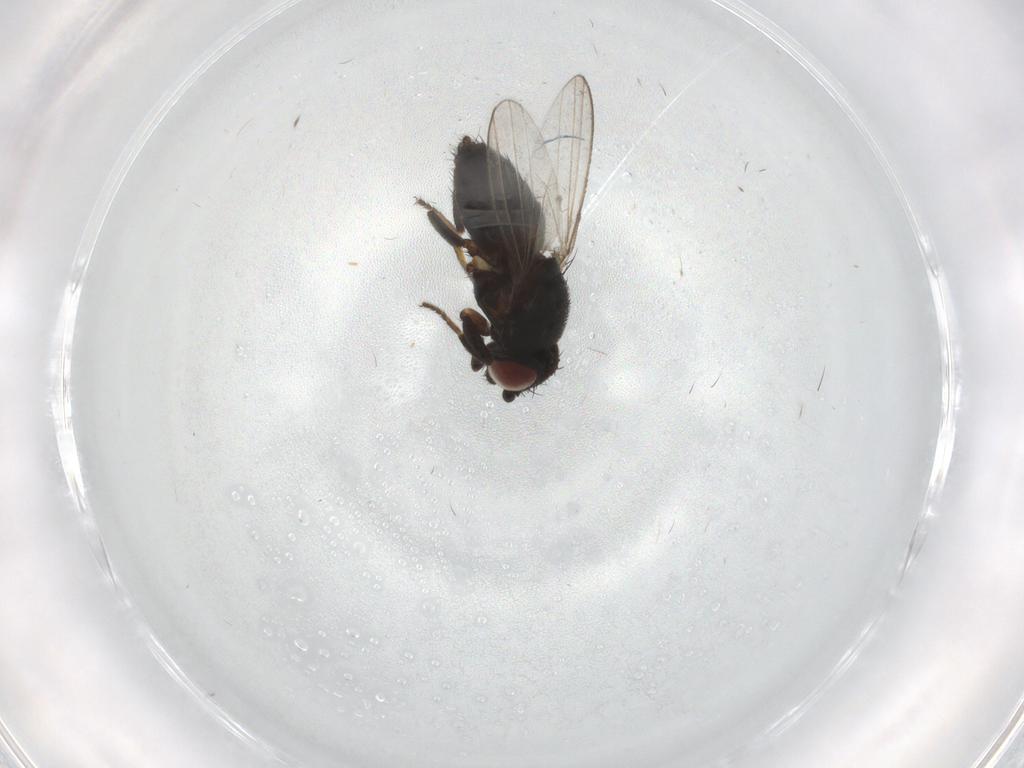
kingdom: Animalia
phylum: Arthropoda
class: Insecta
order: Diptera
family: Milichiidae
